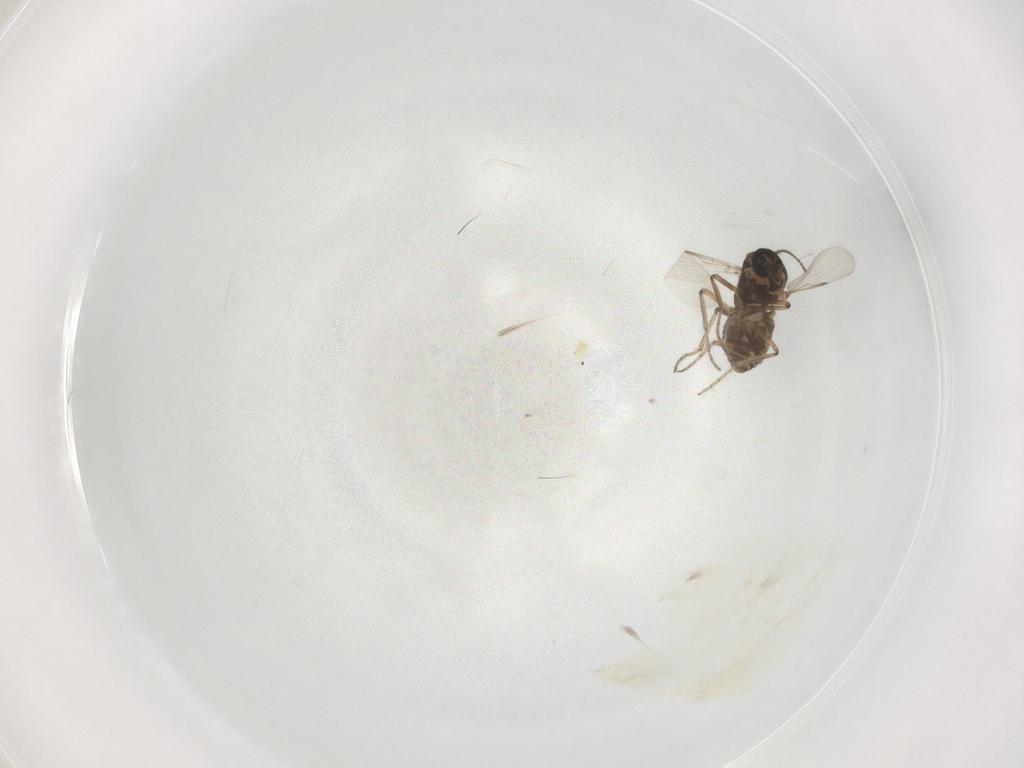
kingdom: Animalia
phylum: Arthropoda
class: Insecta
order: Diptera
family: Ceratopogonidae
